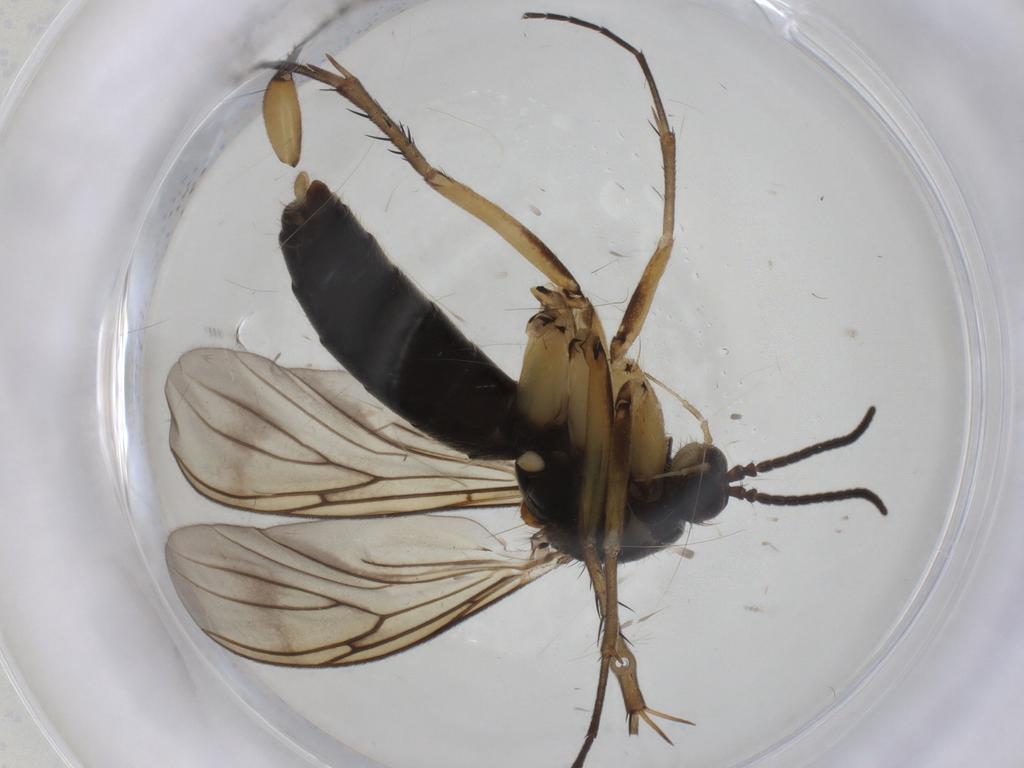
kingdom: Animalia
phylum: Arthropoda
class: Insecta
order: Diptera
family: Mycetophilidae
